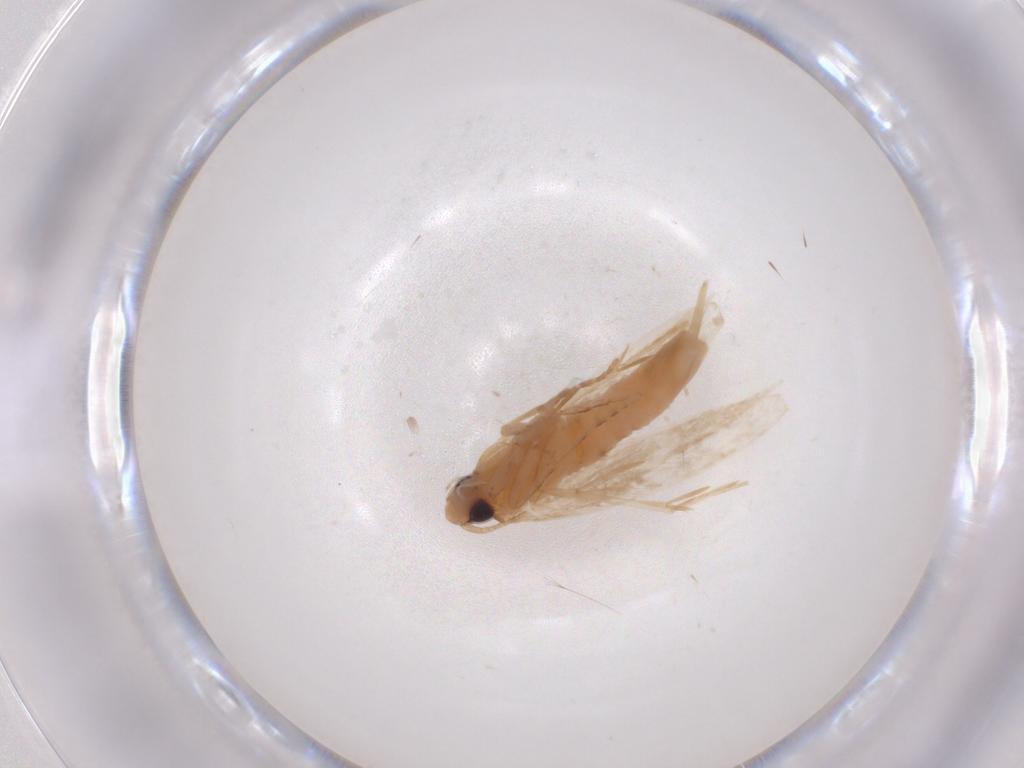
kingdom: Animalia
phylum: Arthropoda
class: Insecta
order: Lepidoptera
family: Tineidae
